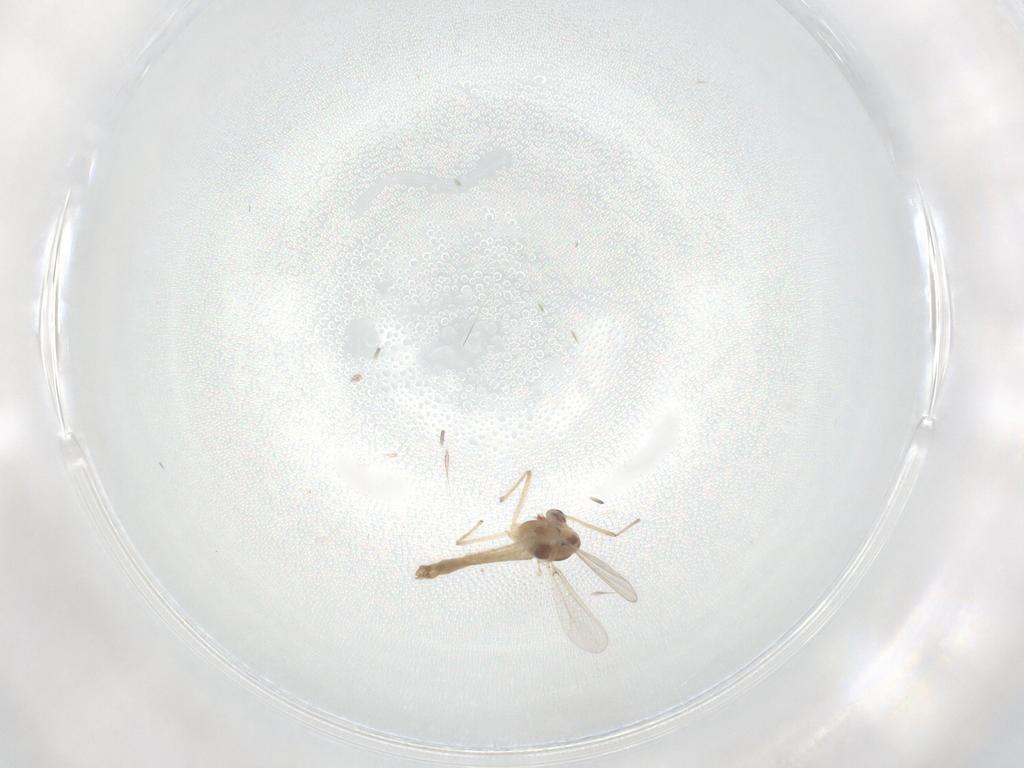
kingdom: Animalia
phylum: Arthropoda
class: Insecta
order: Diptera
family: Chironomidae
